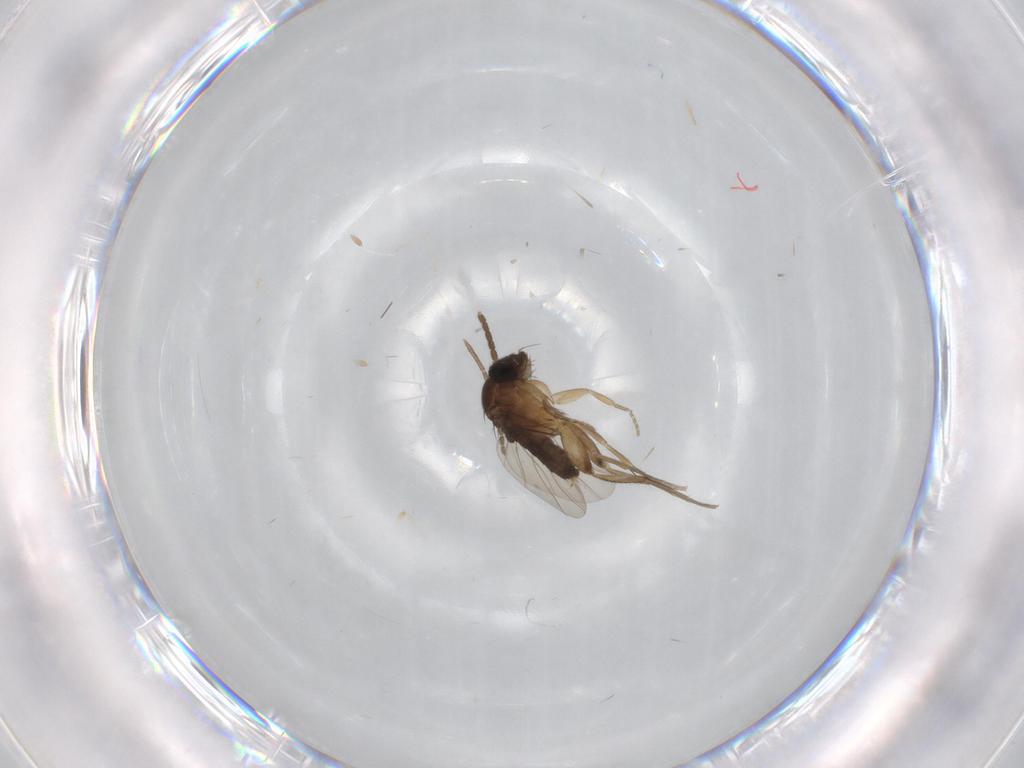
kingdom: Animalia
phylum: Arthropoda
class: Insecta
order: Diptera
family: Sciaridae
